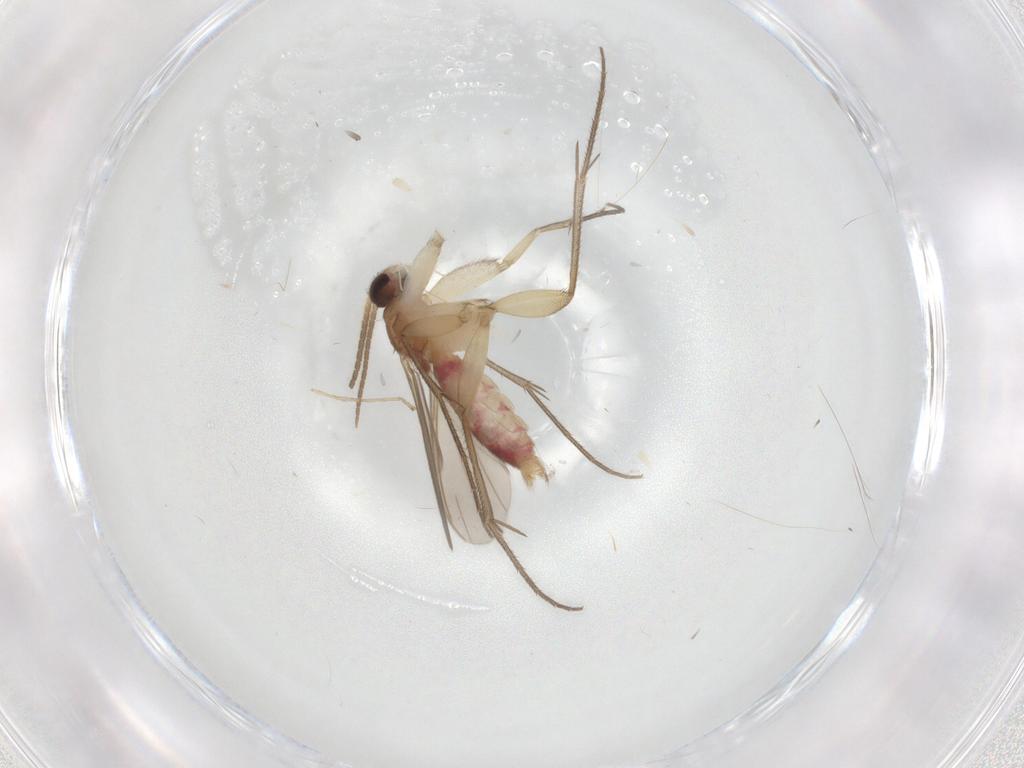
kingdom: Animalia
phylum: Arthropoda
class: Insecta
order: Diptera
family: Mycetophilidae
